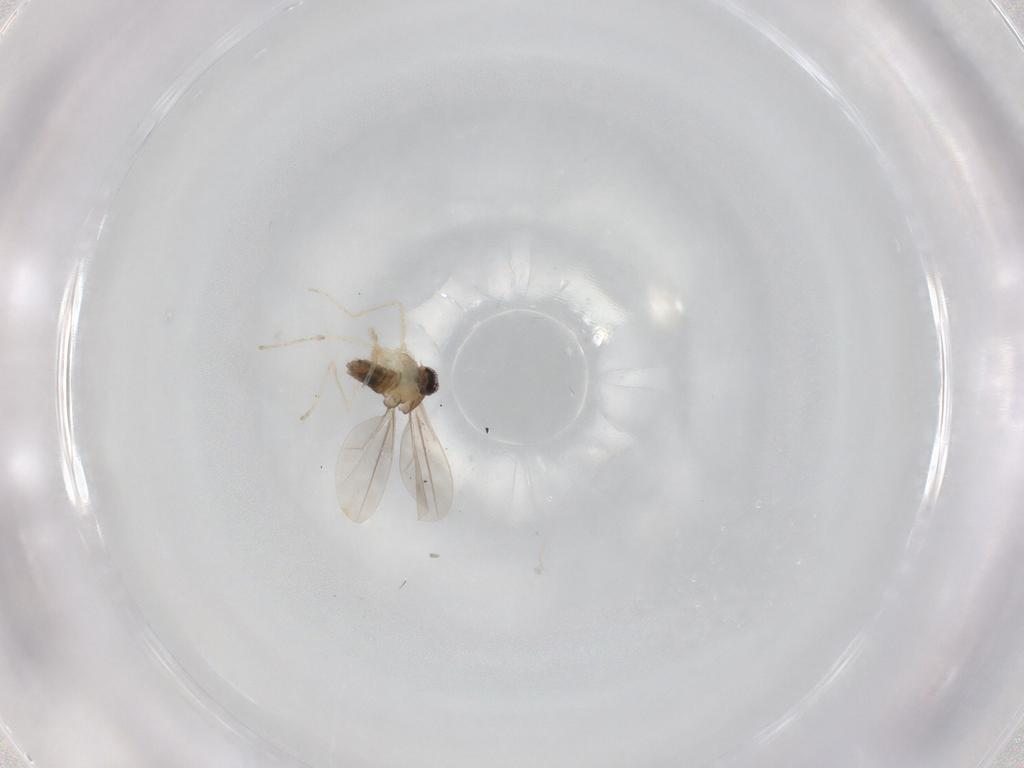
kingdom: Animalia
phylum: Arthropoda
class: Insecta
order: Diptera
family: Cecidomyiidae
